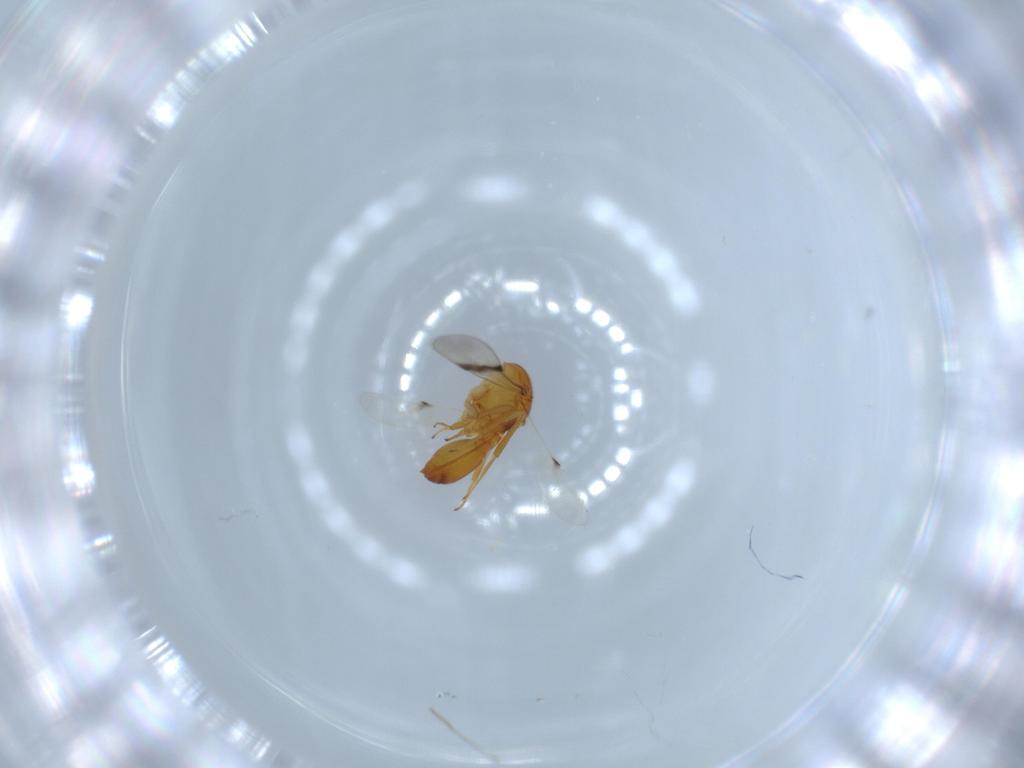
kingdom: Animalia
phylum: Arthropoda
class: Insecta
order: Hymenoptera
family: Scelionidae
